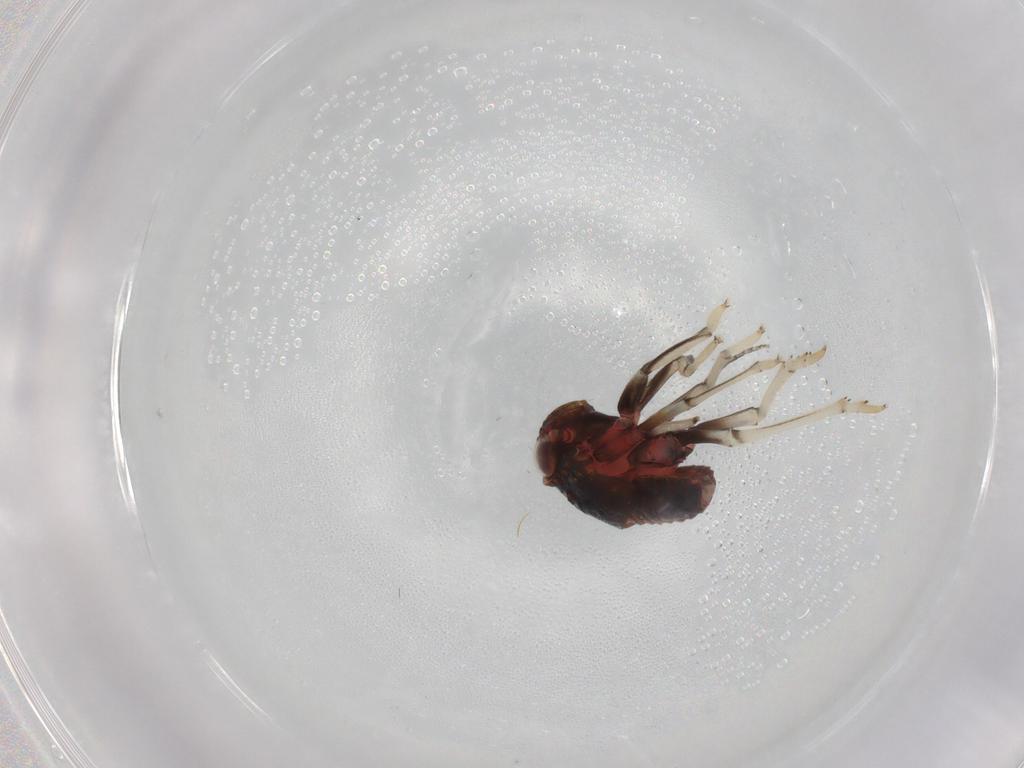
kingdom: Animalia
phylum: Arthropoda
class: Insecta
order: Hemiptera
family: Issidae
